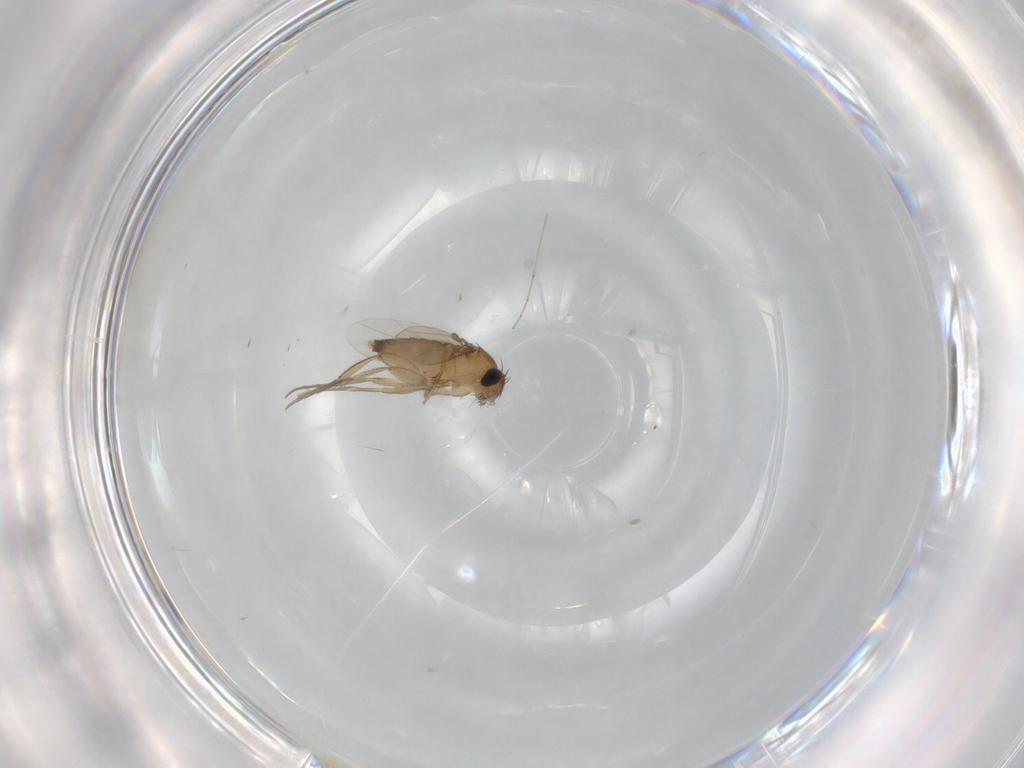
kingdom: Animalia
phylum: Arthropoda
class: Insecta
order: Diptera
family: Phoridae
